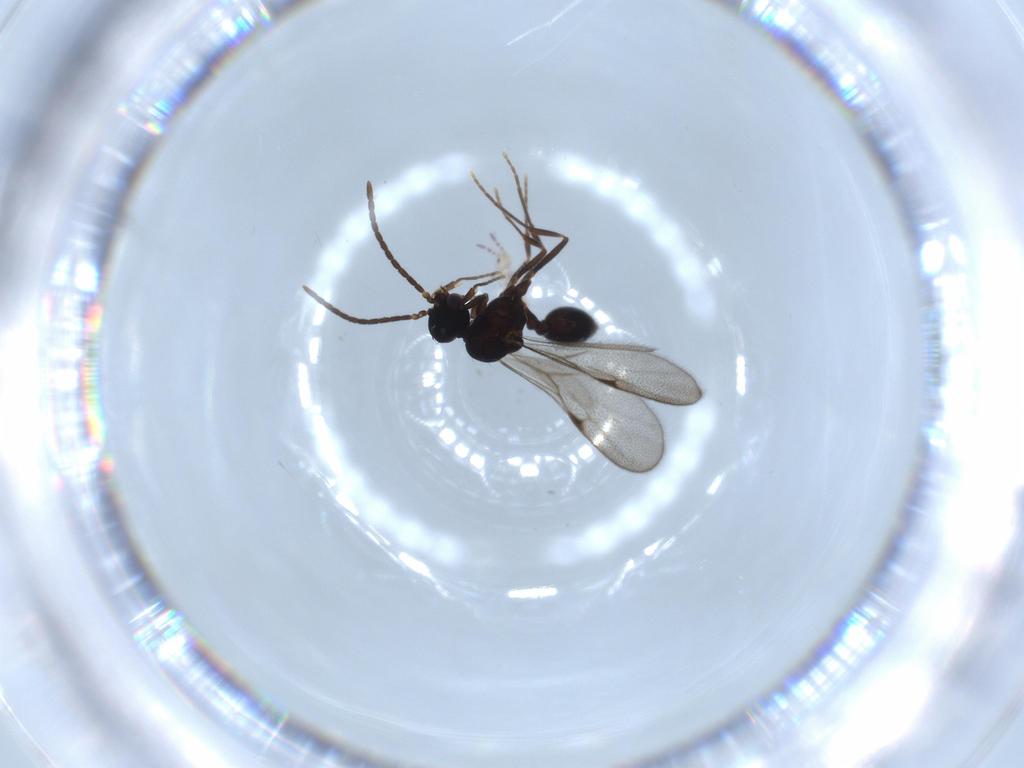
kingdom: Animalia
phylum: Arthropoda
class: Collembola
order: Entomobryomorpha
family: Entomobryidae
